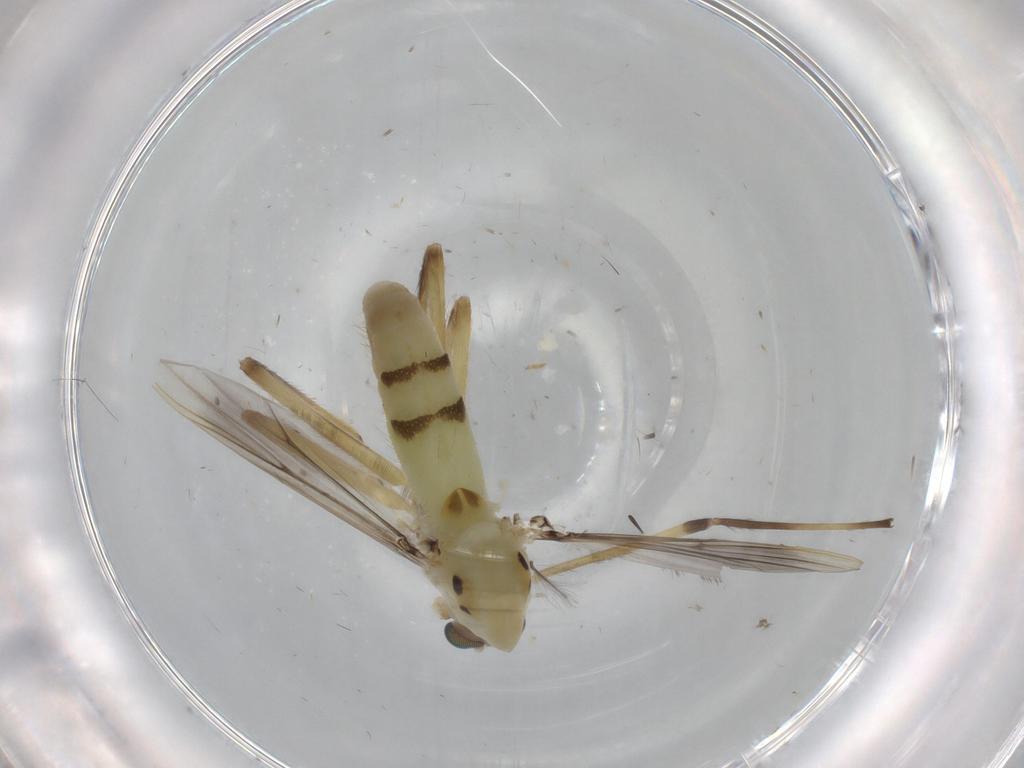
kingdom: Animalia
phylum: Arthropoda
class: Insecta
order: Diptera
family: Chironomidae
